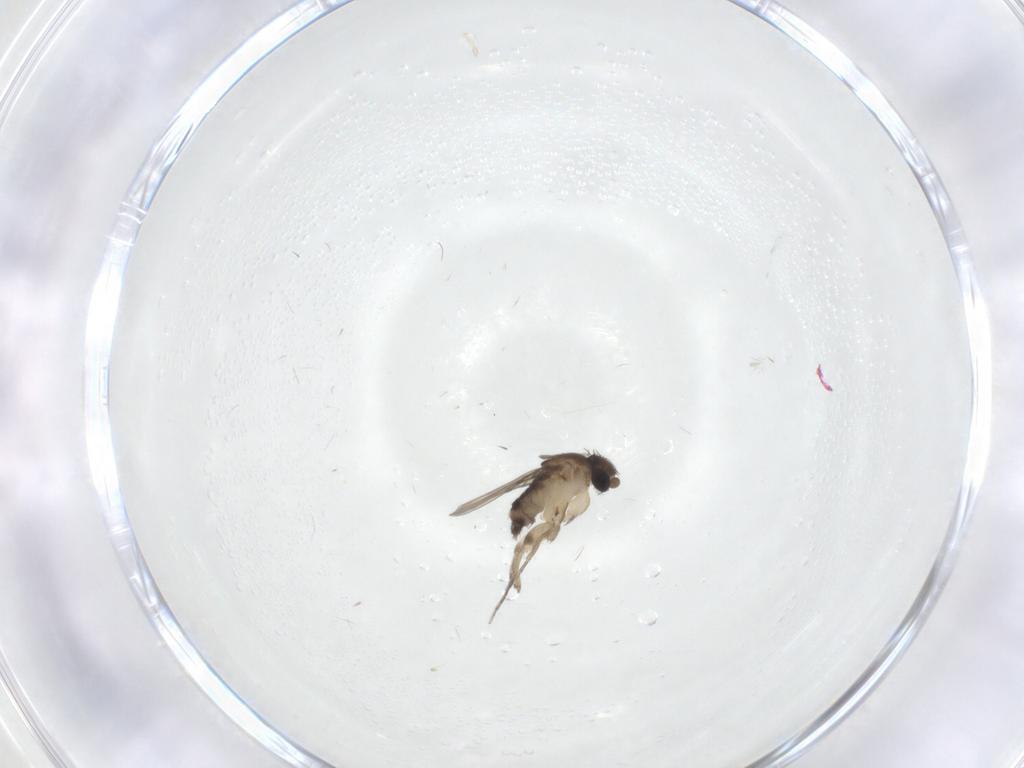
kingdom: Animalia
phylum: Arthropoda
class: Insecta
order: Diptera
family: Phoridae
